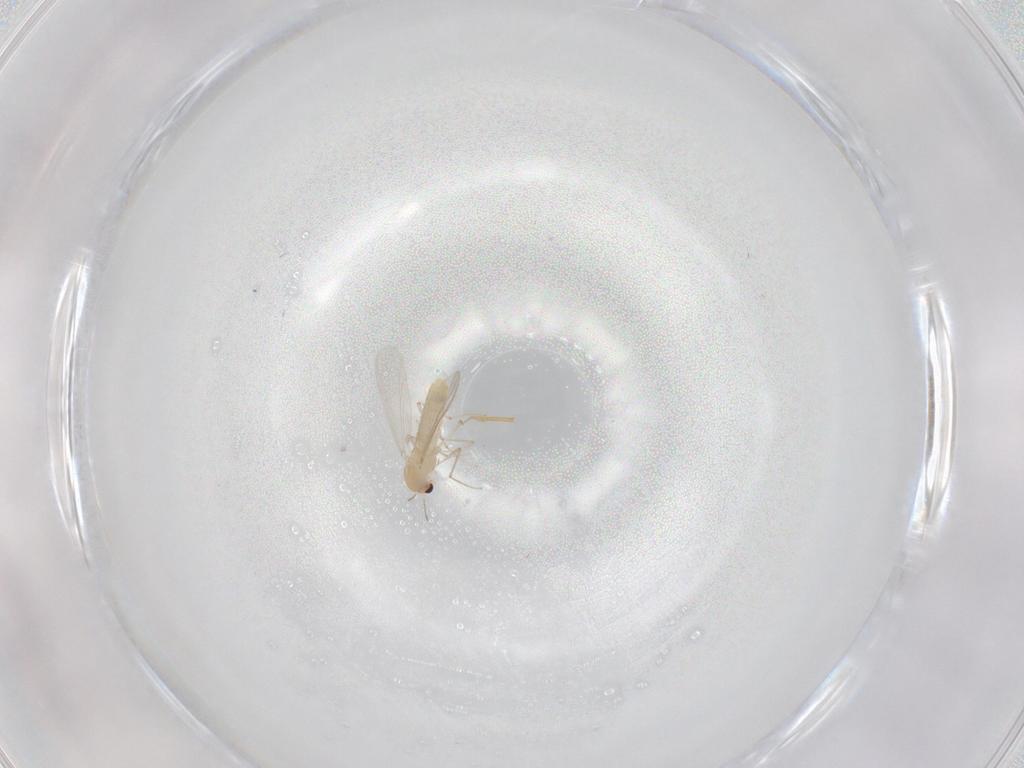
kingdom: Animalia
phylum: Arthropoda
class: Insecta
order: Diptera
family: Chironomidae
